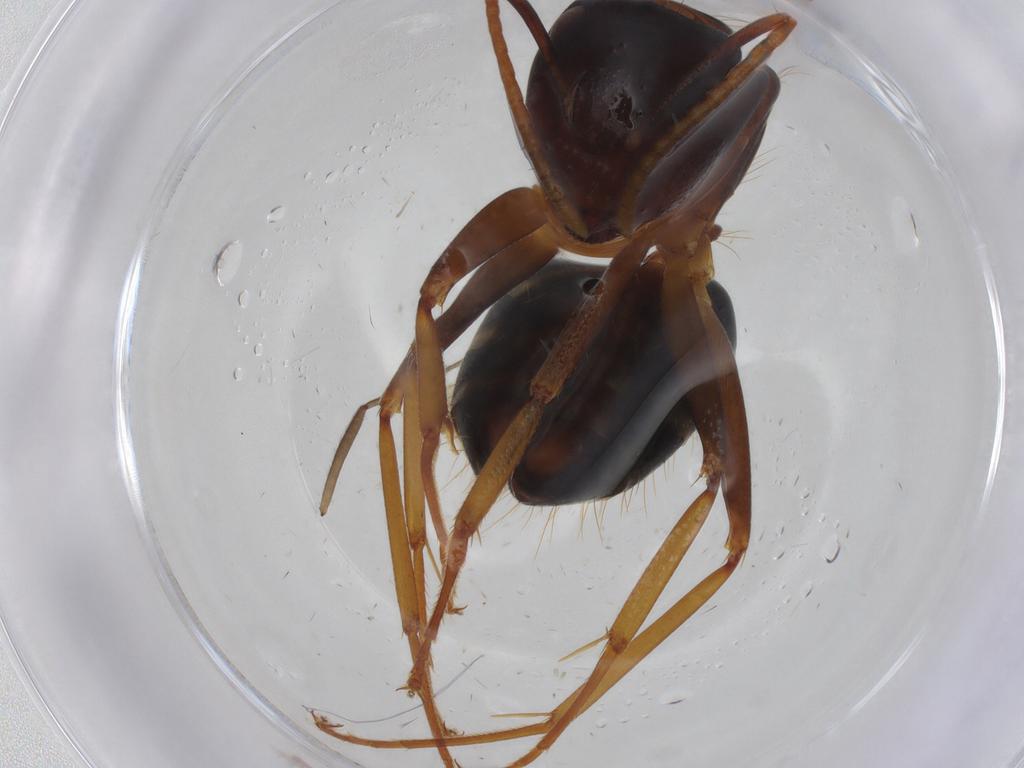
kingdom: Animalia
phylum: Arthropoda
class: Insecta
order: Hymenoptera
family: Formicidae
